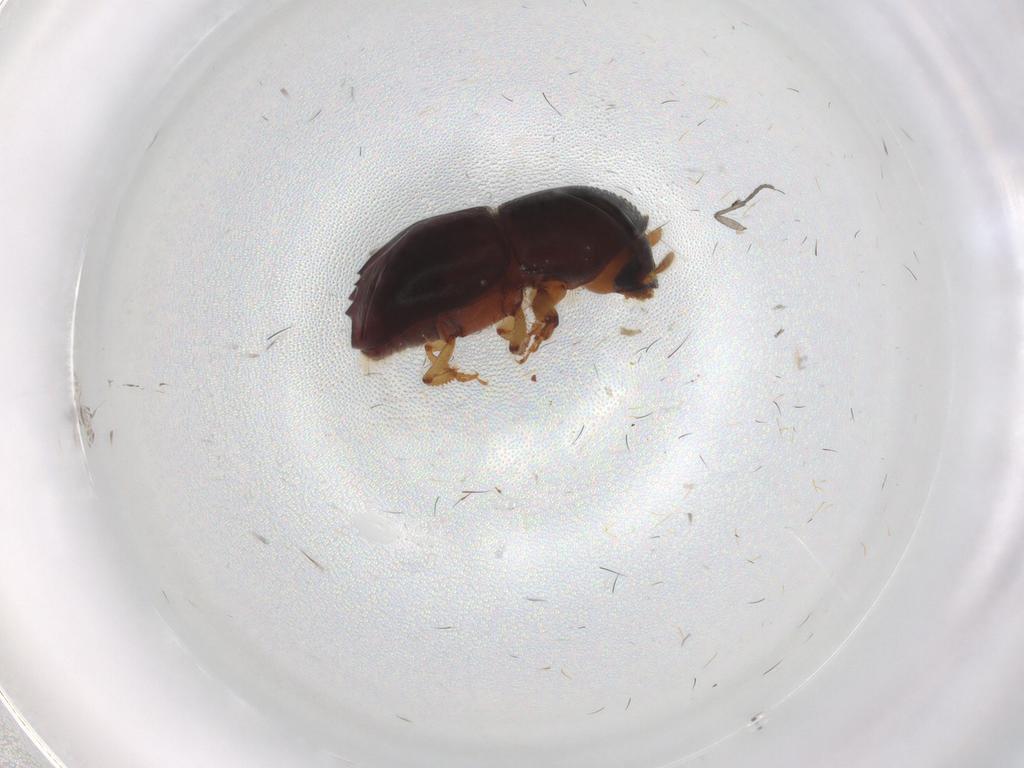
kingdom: Animalia
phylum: Arthropoda
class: Insecta
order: Coleoptera
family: Curculionidae
